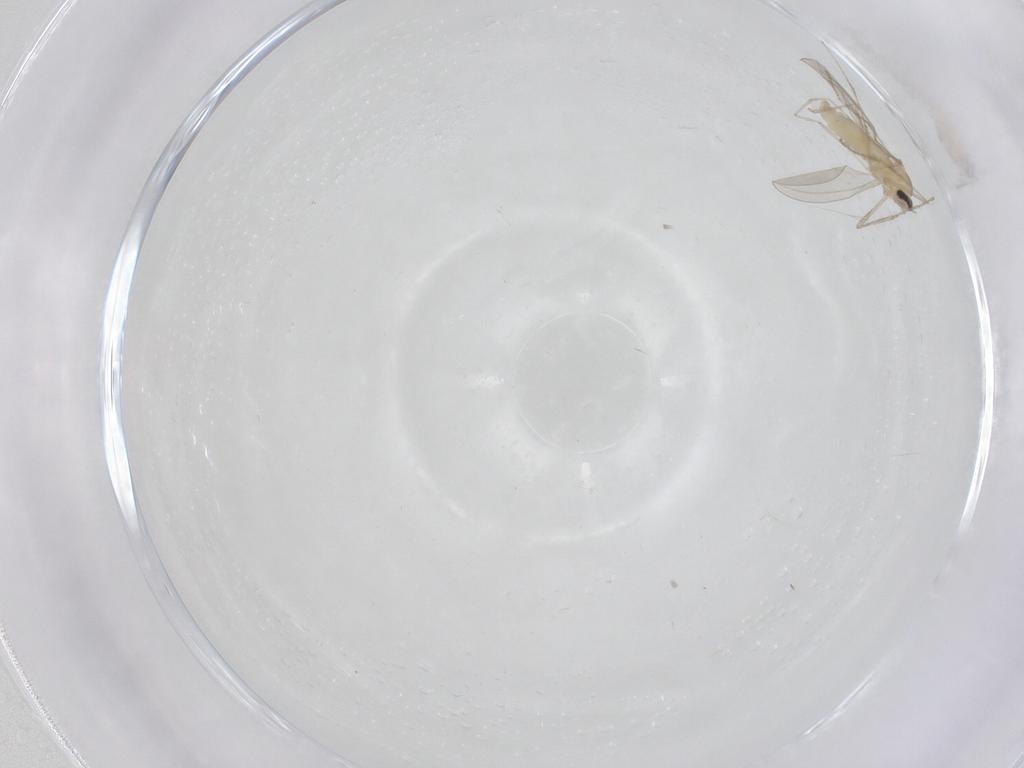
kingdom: Animalia
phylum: Arthropoda
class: Insecta
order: Diptera
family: Cecidomyiidae
